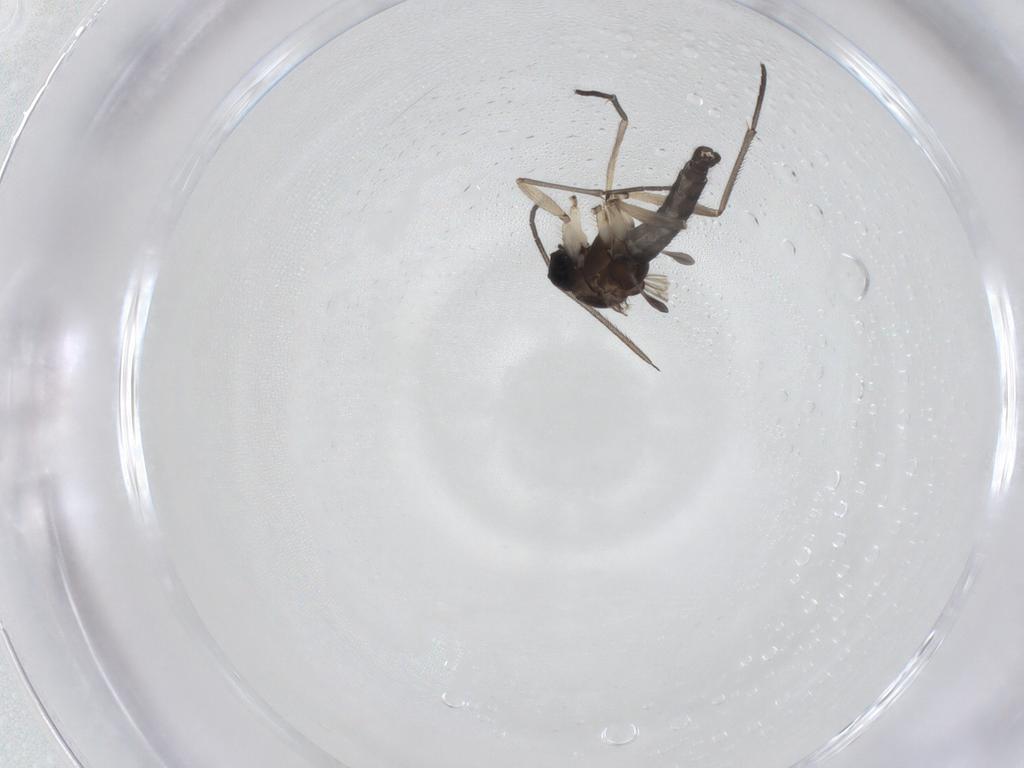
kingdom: Animalia
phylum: Arthropoda
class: Insecta
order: Diptera
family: Sciaridae
